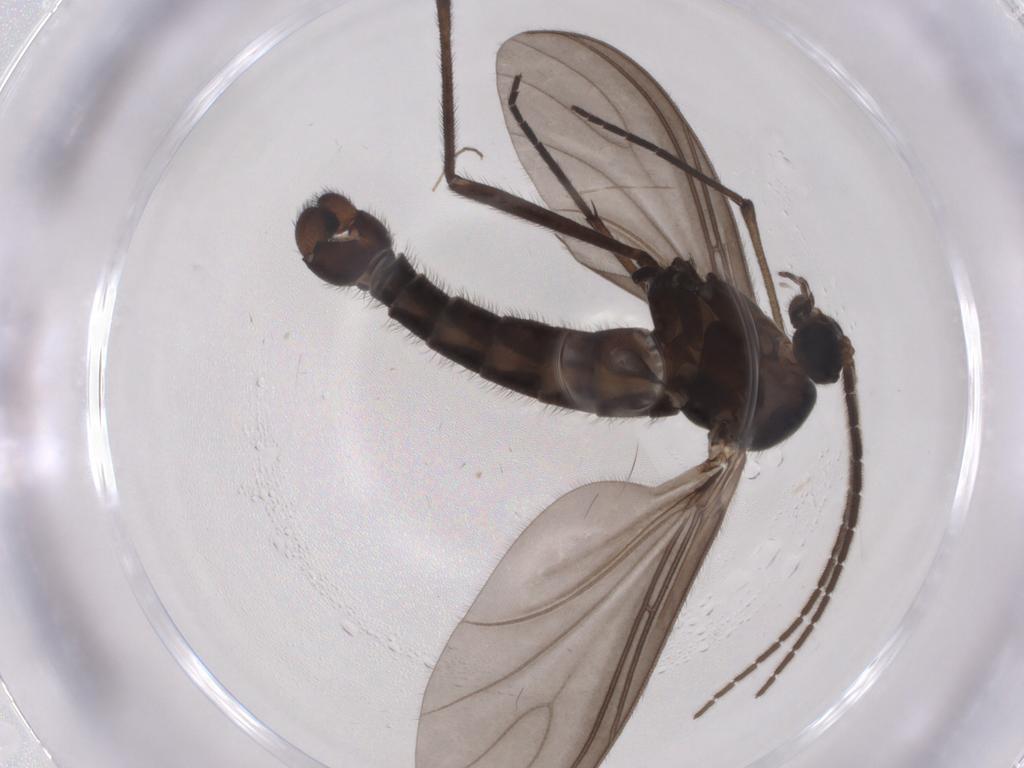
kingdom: Animalia
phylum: Arthropoda
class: Insecta
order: Diptera
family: Sciaridae
